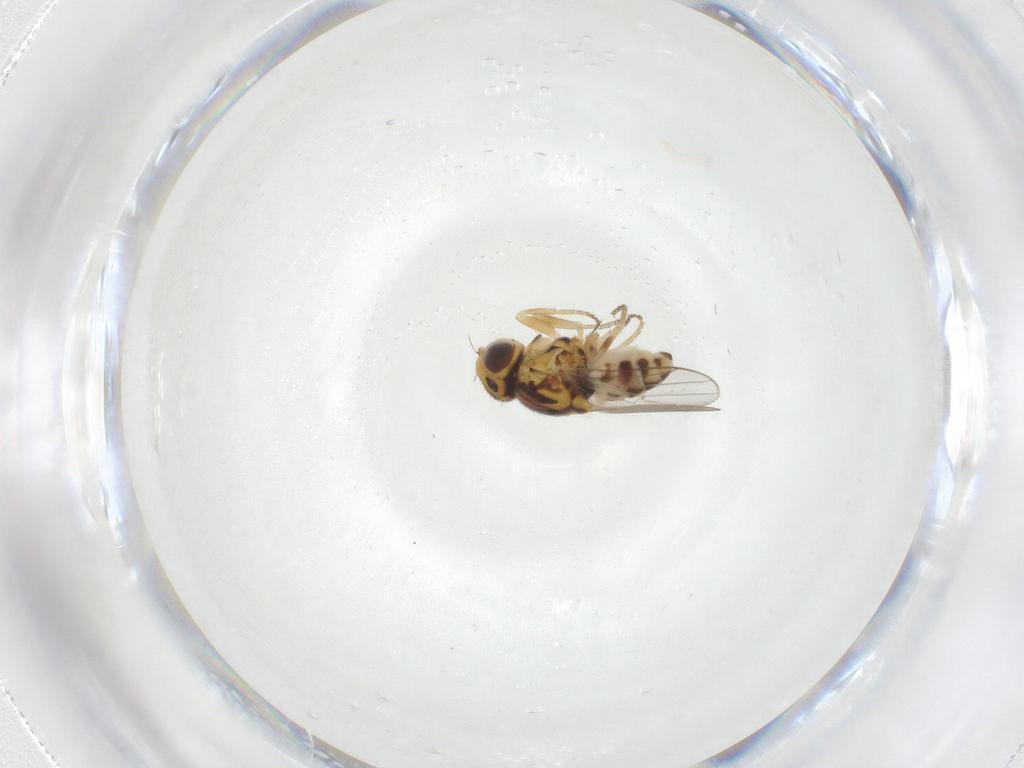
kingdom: Animalia
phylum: Arthropoda
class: Insecta
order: Diptera
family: Chloropidae
